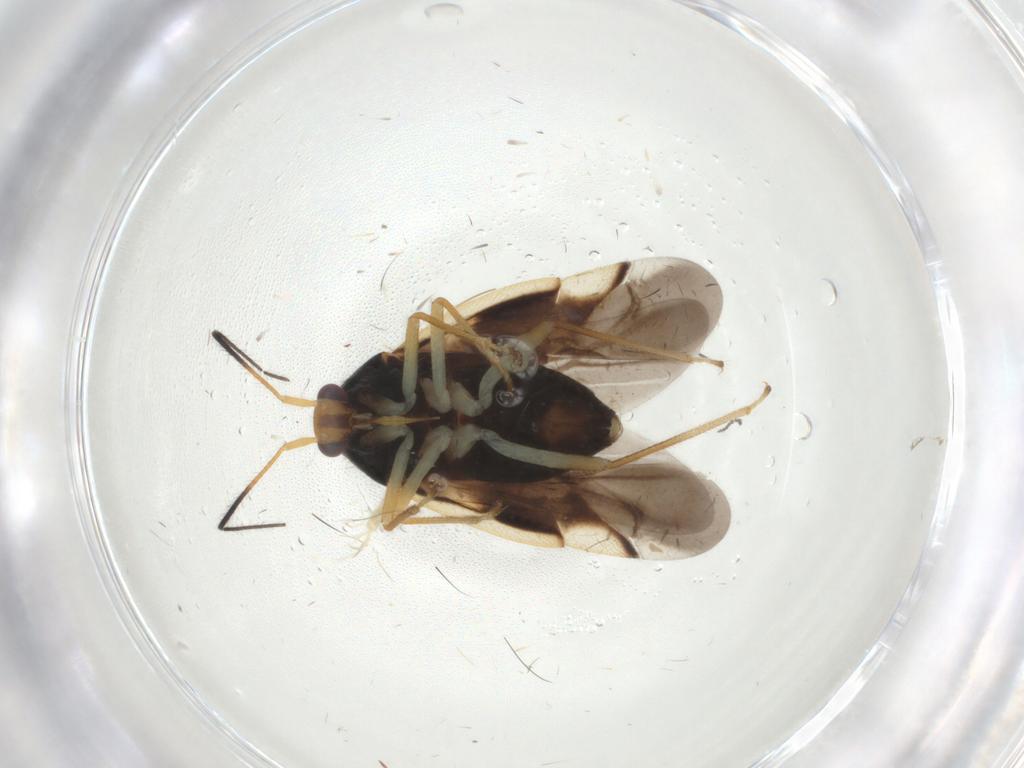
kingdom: Animalia
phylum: Arthropoda
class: Insecta
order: Hemiptera
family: Miridae
